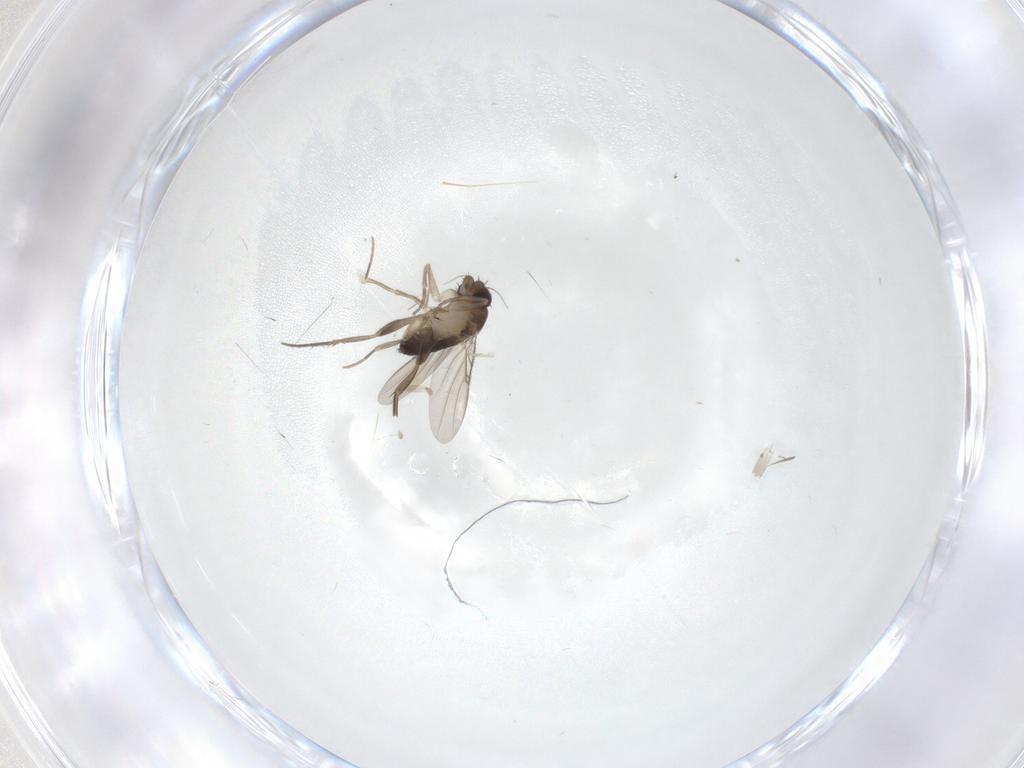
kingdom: Animalia
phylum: Arthropoda
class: Insecta
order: Diptera
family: Phoridae
